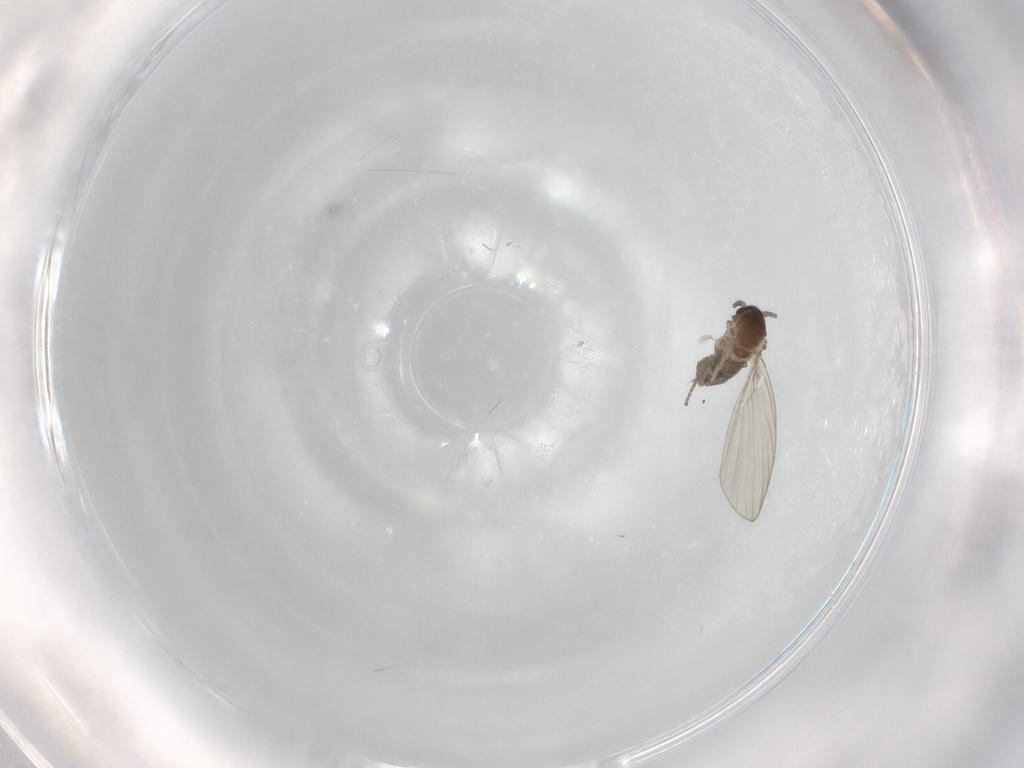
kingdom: Animalia
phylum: Arthropoda
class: Insecta
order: Diptera
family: Psychodidae
